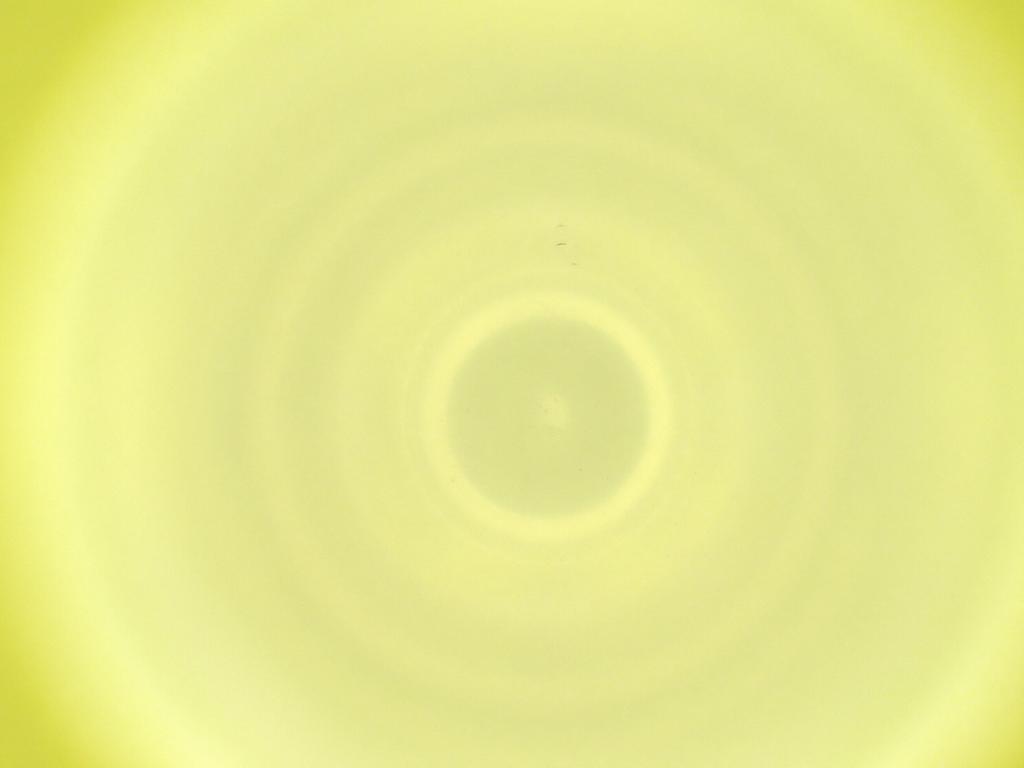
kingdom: Animalia
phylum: Arthropoda
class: Insecta
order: Diptera
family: Cecidomyiidae
